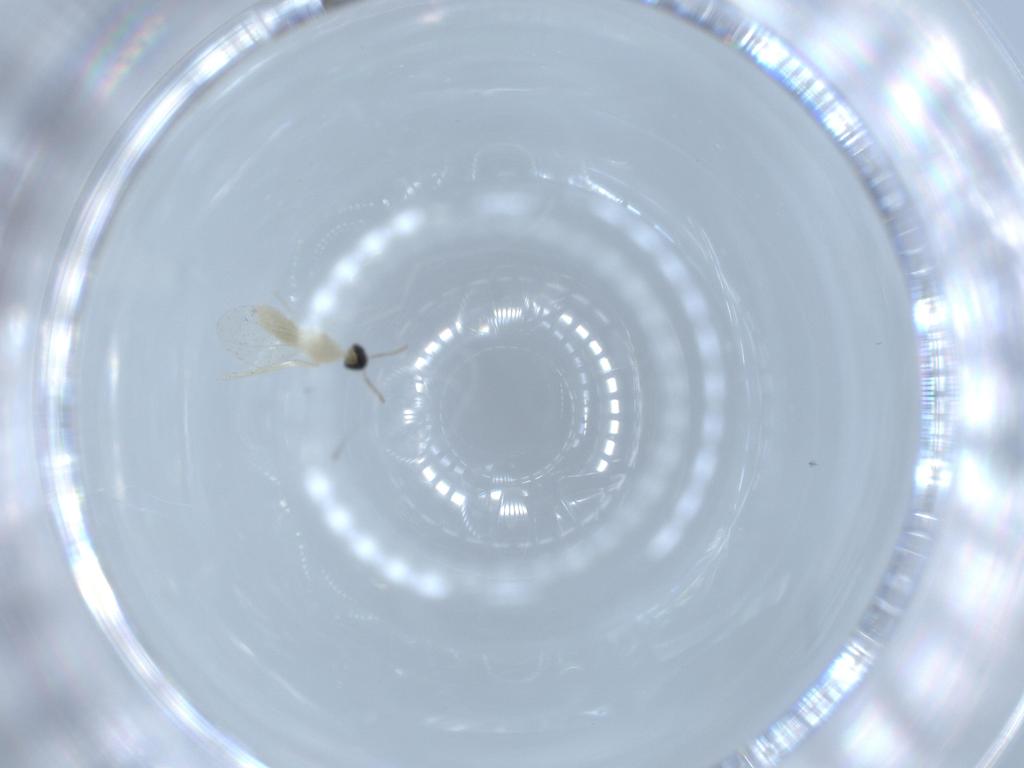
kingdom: Animalia
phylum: Arthropoda
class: Insecta
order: Diptera
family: Cecidomyiidae
